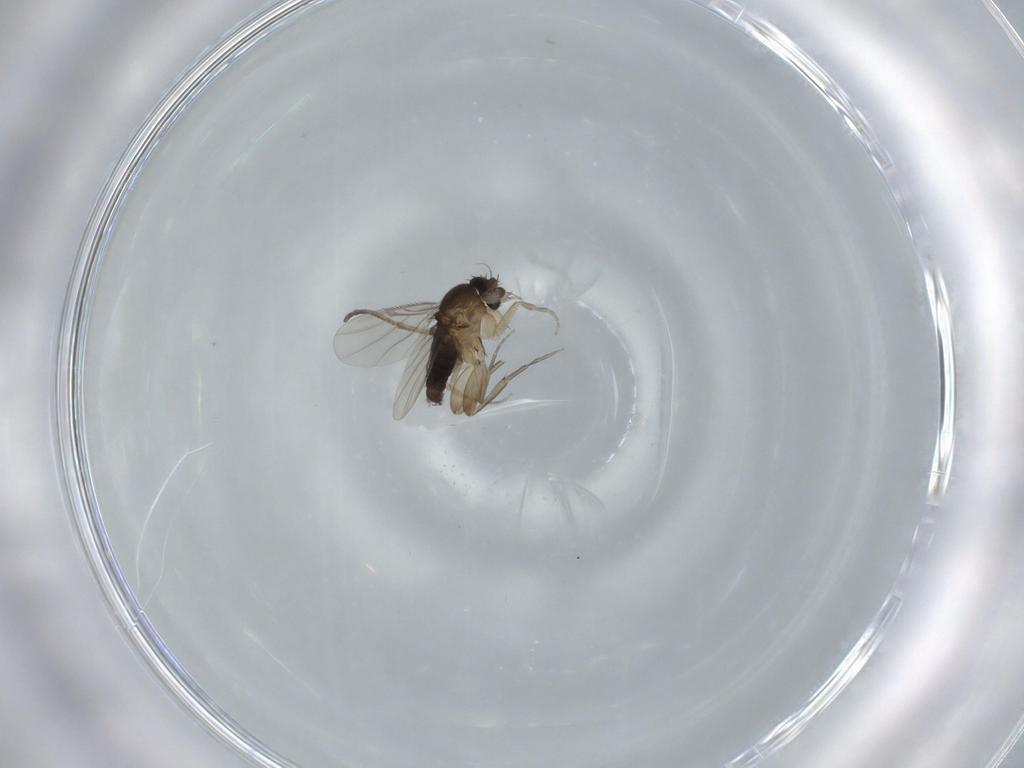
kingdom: Animalia
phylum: Arthropoda
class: Insecta
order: Diptera
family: Phoridae
